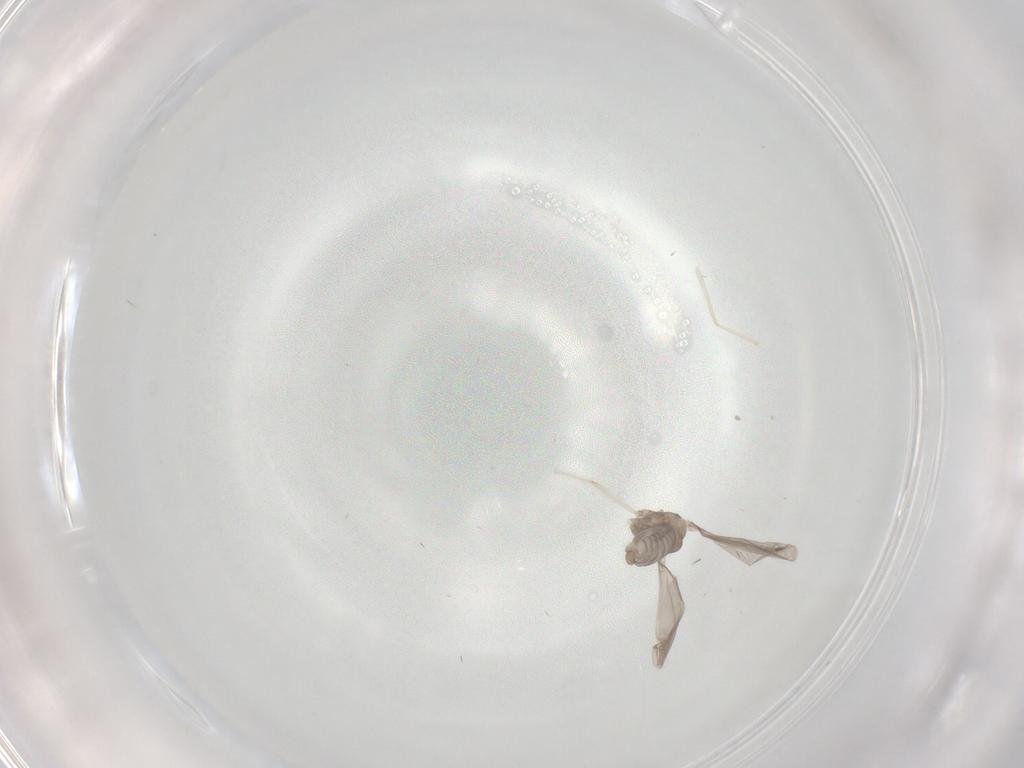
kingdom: Animalia
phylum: Arthropoda
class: Insecta
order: Diptera
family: Cecidomyiidae
